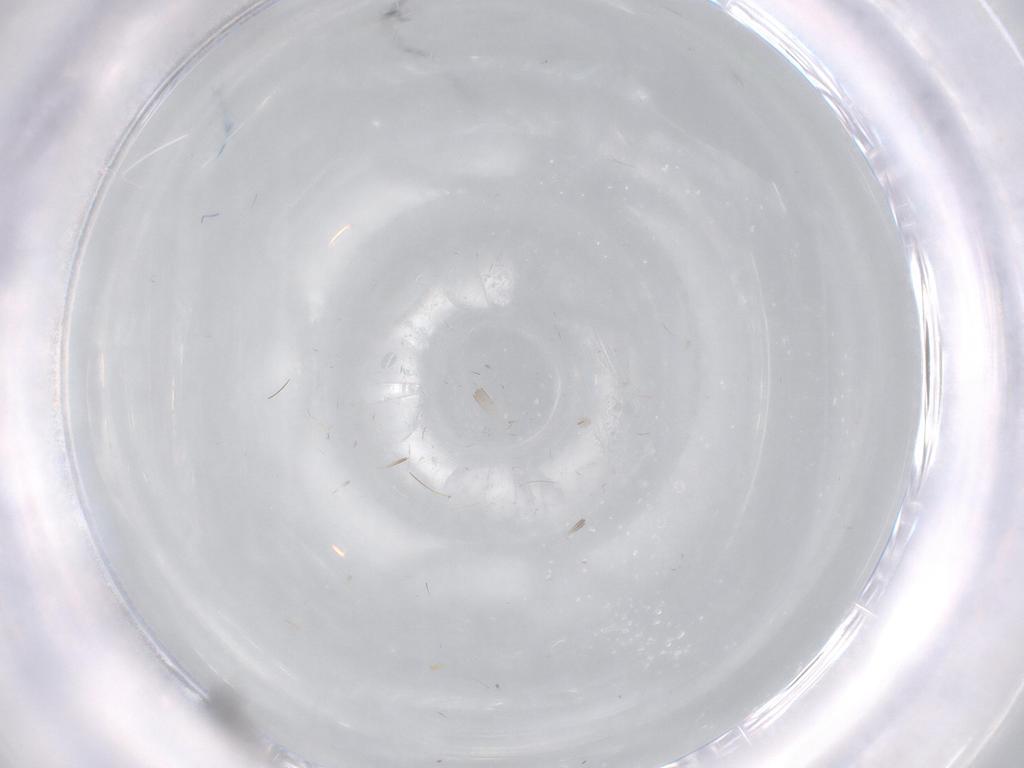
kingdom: Animalia
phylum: Arthropoda
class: Insecta
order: Diptera
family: Cecidomyiidae
